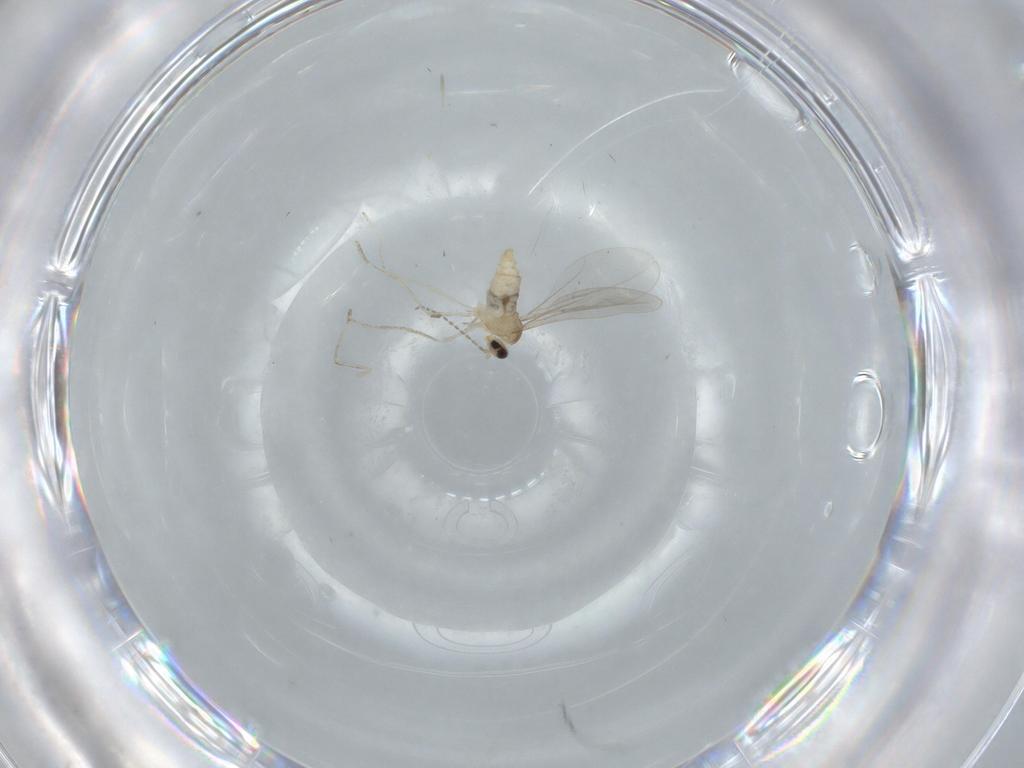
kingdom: Animalia
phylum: Arthropoda
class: Insecta
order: Diptera
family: Cecidomyiidae
